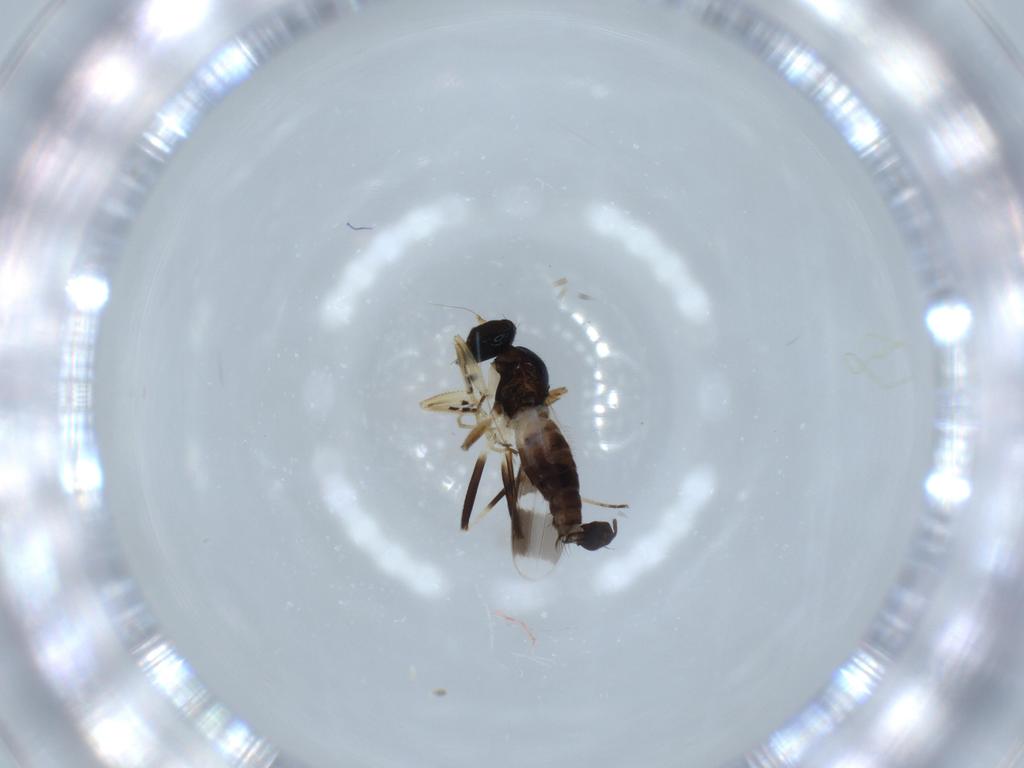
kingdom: Animalia
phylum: Arthropoda
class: Insecta
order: Diptera
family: Hybotidae
